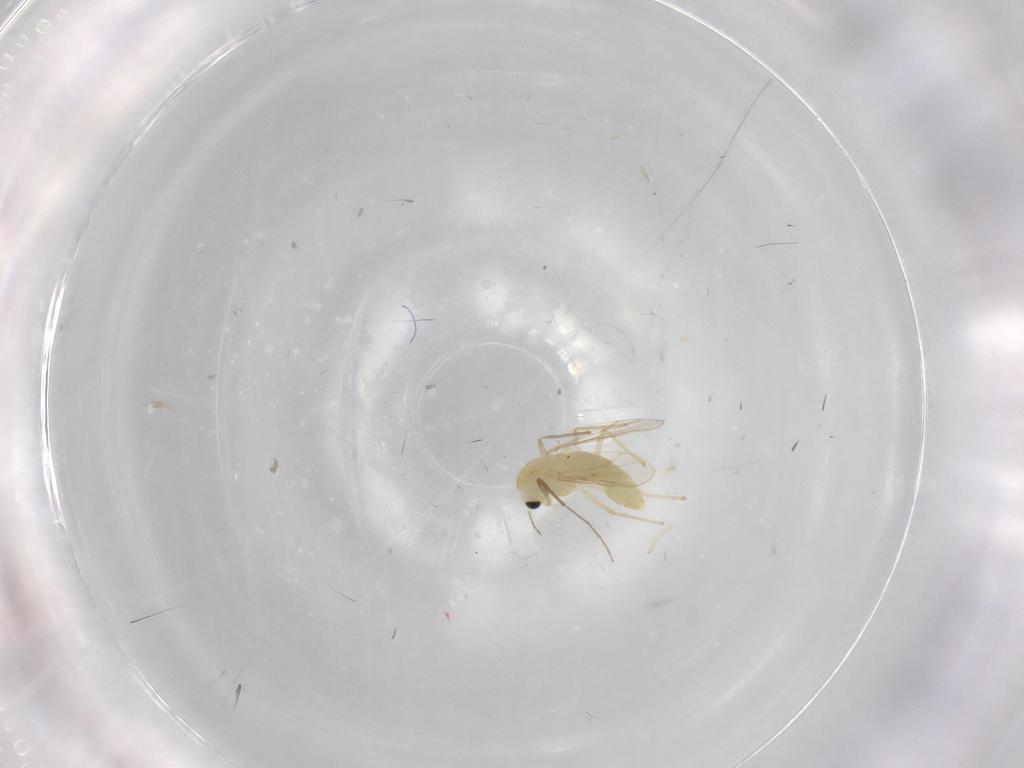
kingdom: Animalia
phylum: Arthropoda
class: Insecta
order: Diptera
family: Chironomidae
